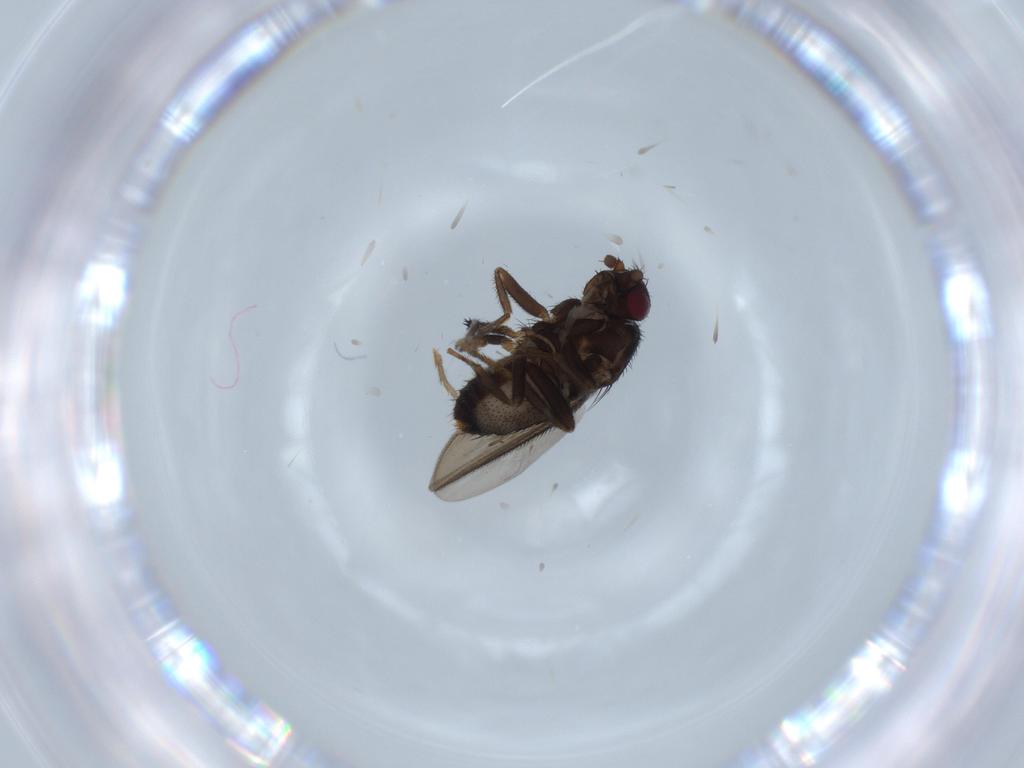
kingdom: Animalia
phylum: Arthropoda
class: Insecta
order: Diptera
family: Sphaeroceridae
